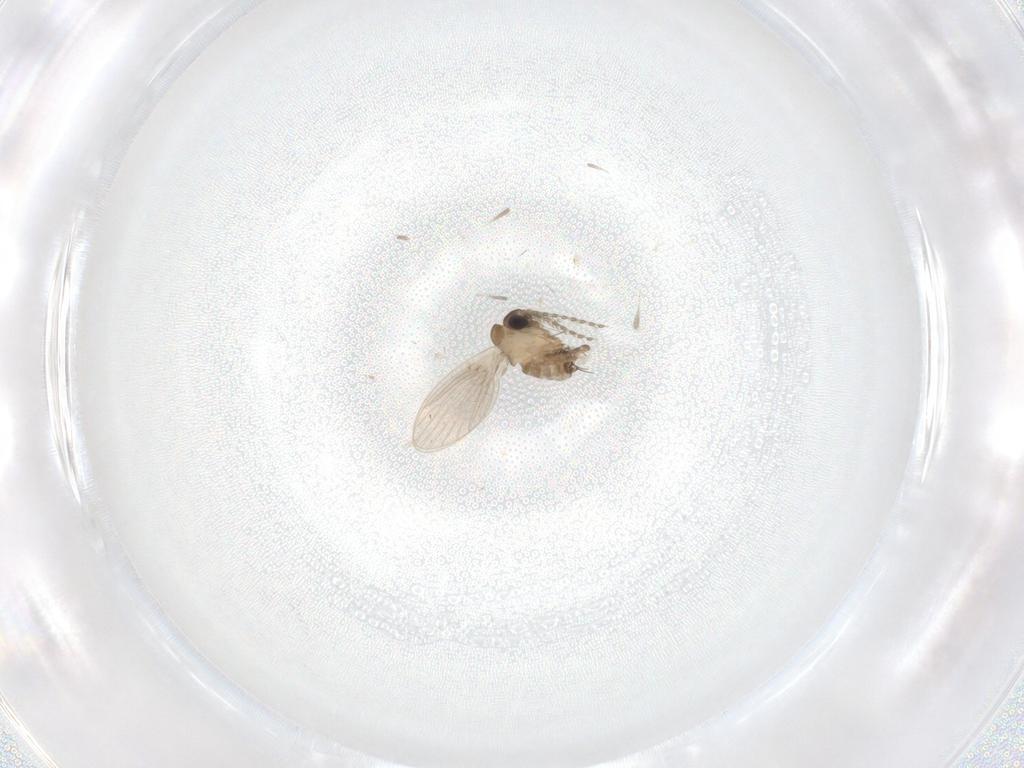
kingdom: Animalia
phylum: Arthropoda
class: Insecta
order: Diptera
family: Psychodidae
